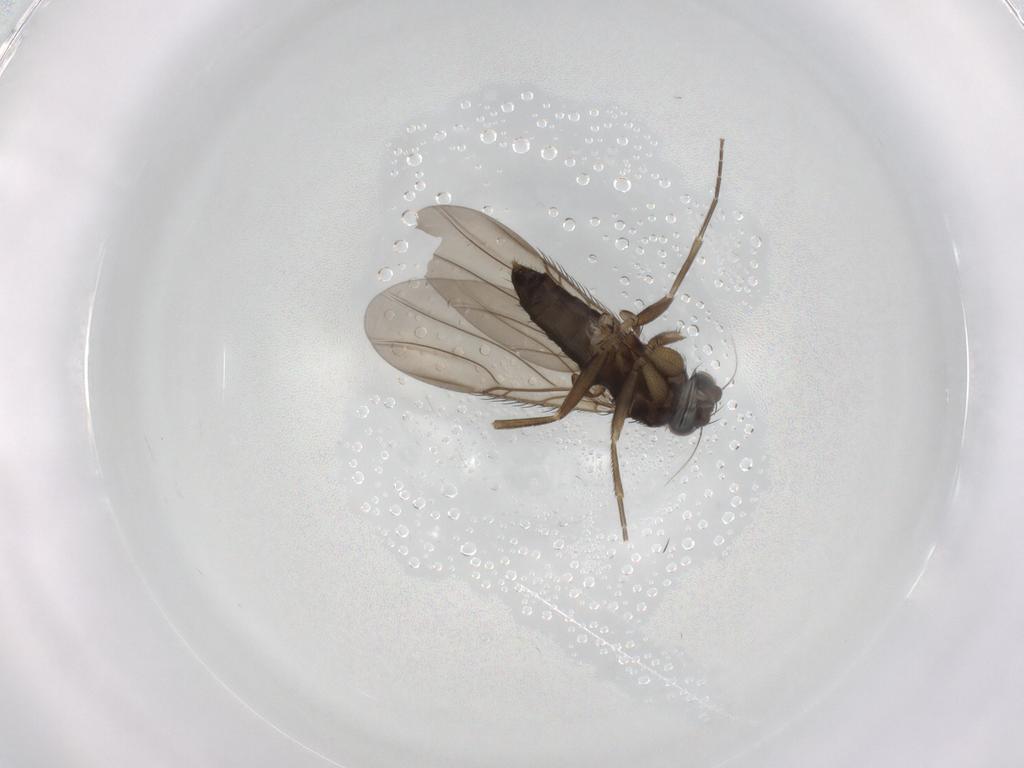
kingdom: Animalia
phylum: Arthropoda
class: Insecta
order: Diptera
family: Phoridae
